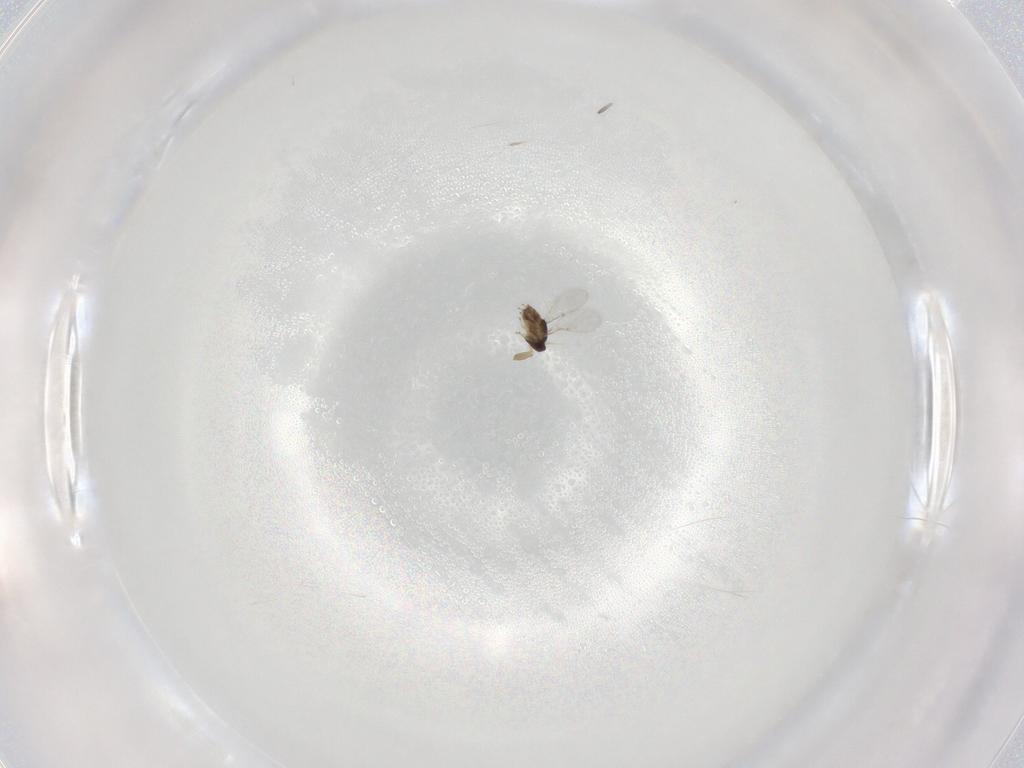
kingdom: Animalia
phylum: Arthropoda
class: Insecta
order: Hymenoptera
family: Encyrtidae
